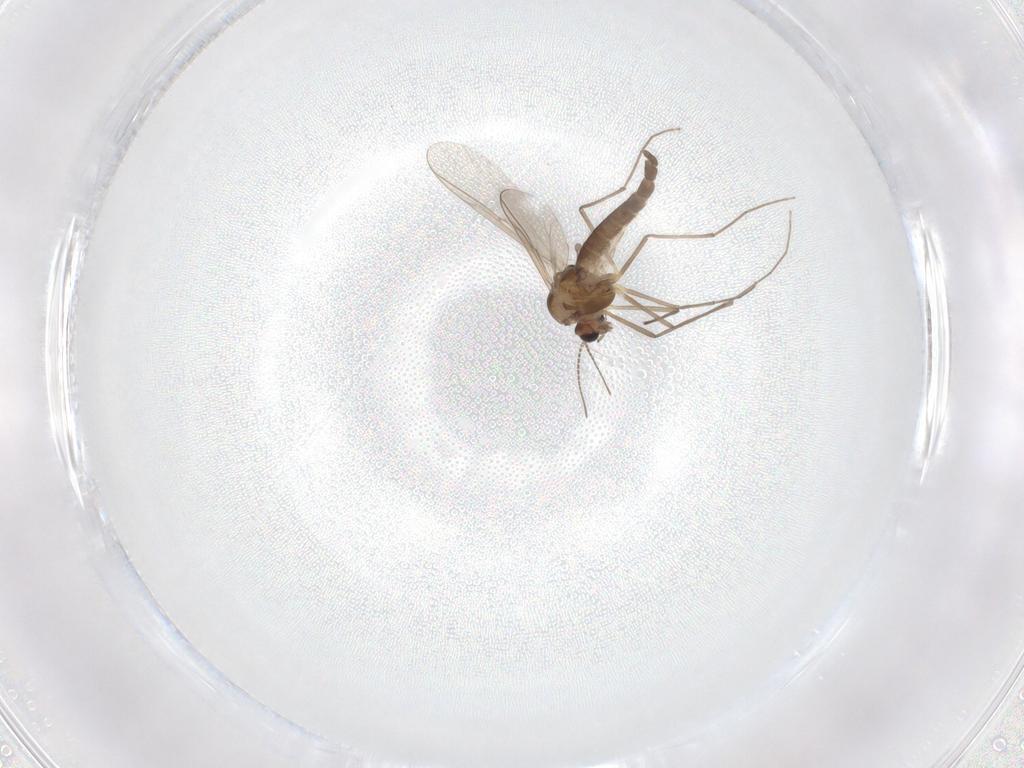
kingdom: Animalia
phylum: Arthropoda
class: Insecta
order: Diptera
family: Chironomidae
